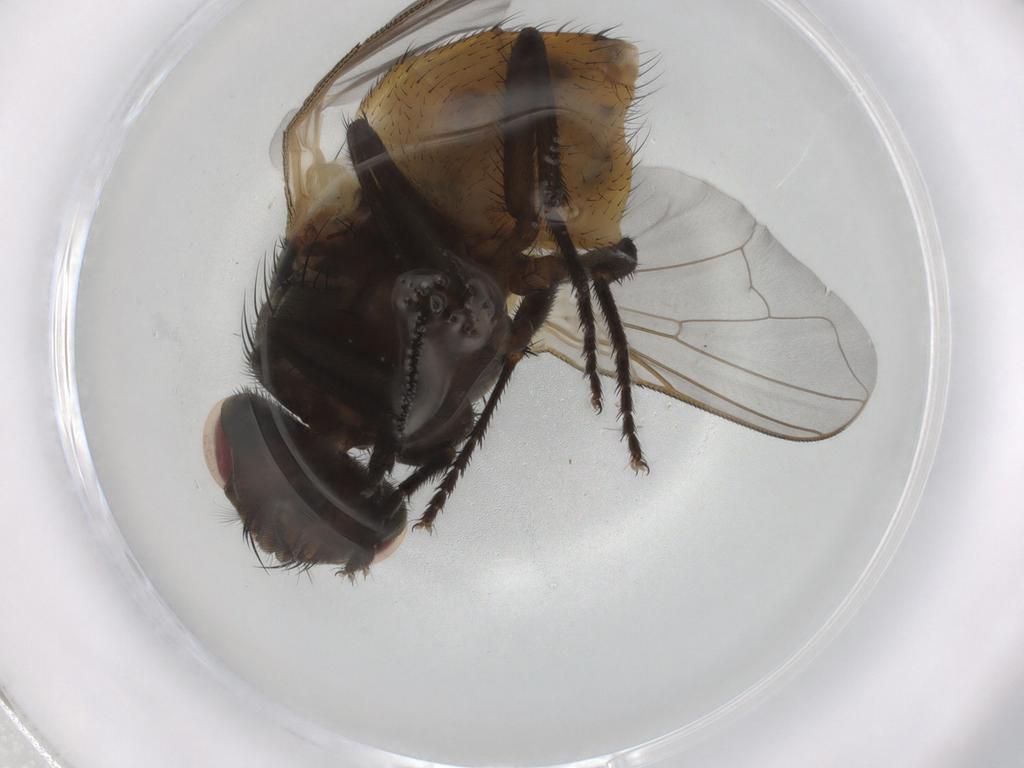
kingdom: Animalia
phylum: Arthropoda
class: Insecta
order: Diptera
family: Muscidae
